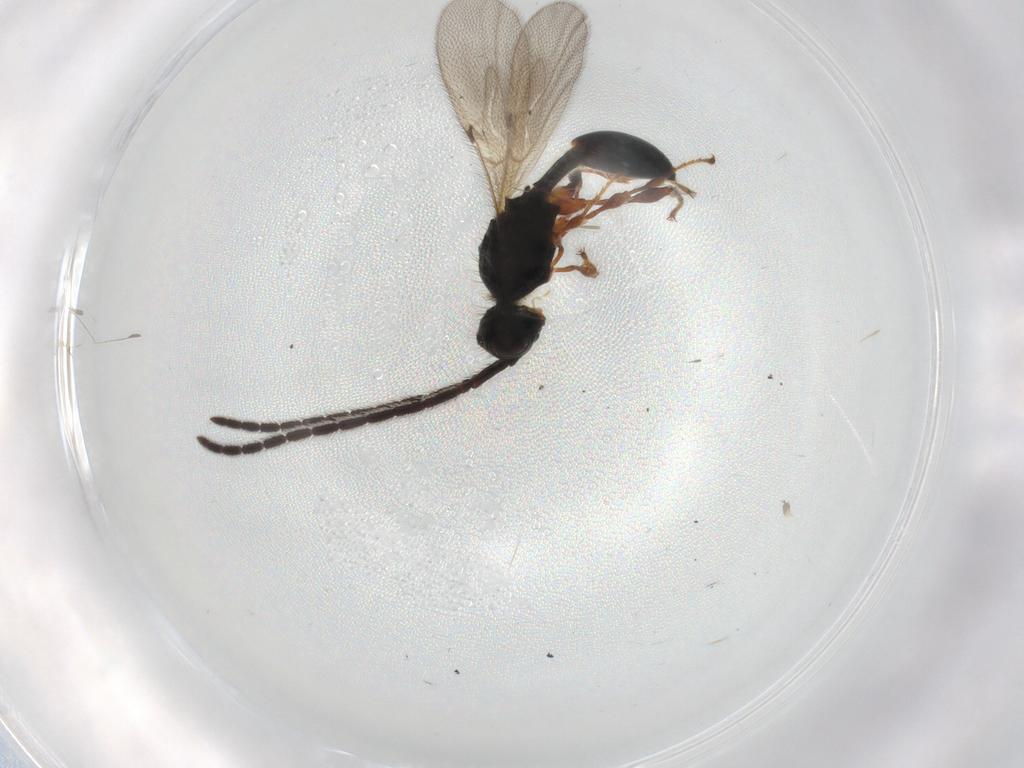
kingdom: Animalia
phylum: Arthropoda
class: Insecta
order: Hymenoptera
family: Diapriidae
